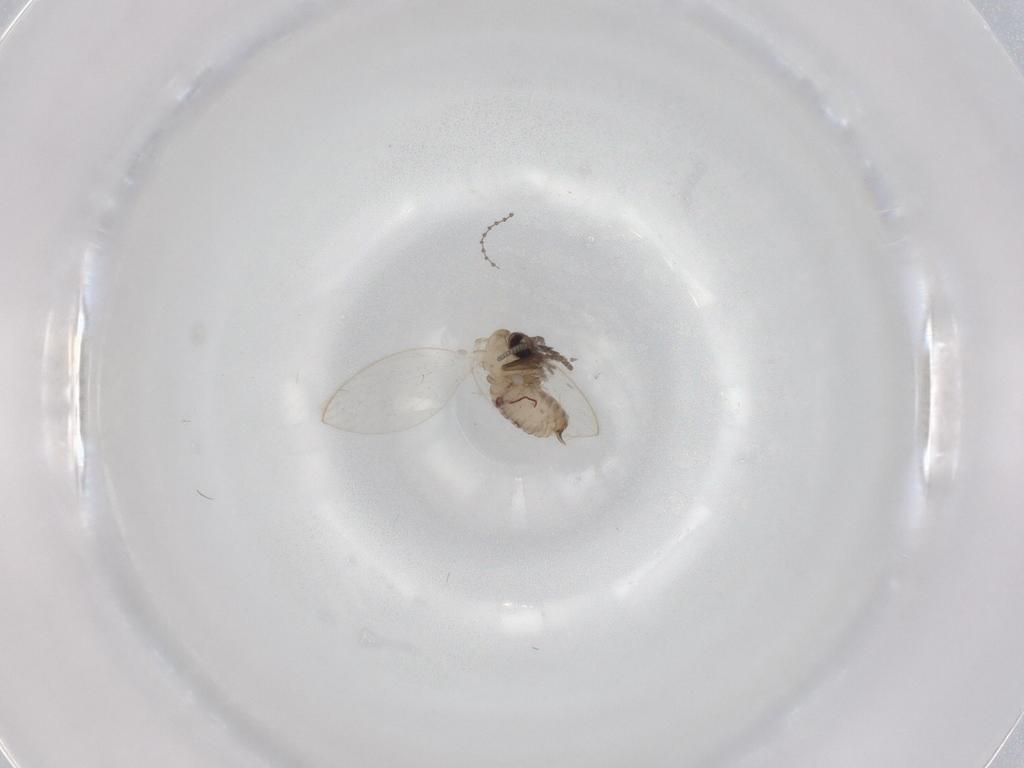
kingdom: Animalia
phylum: Arthropoda
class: Insecta
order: Diptera
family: Psychodidae
